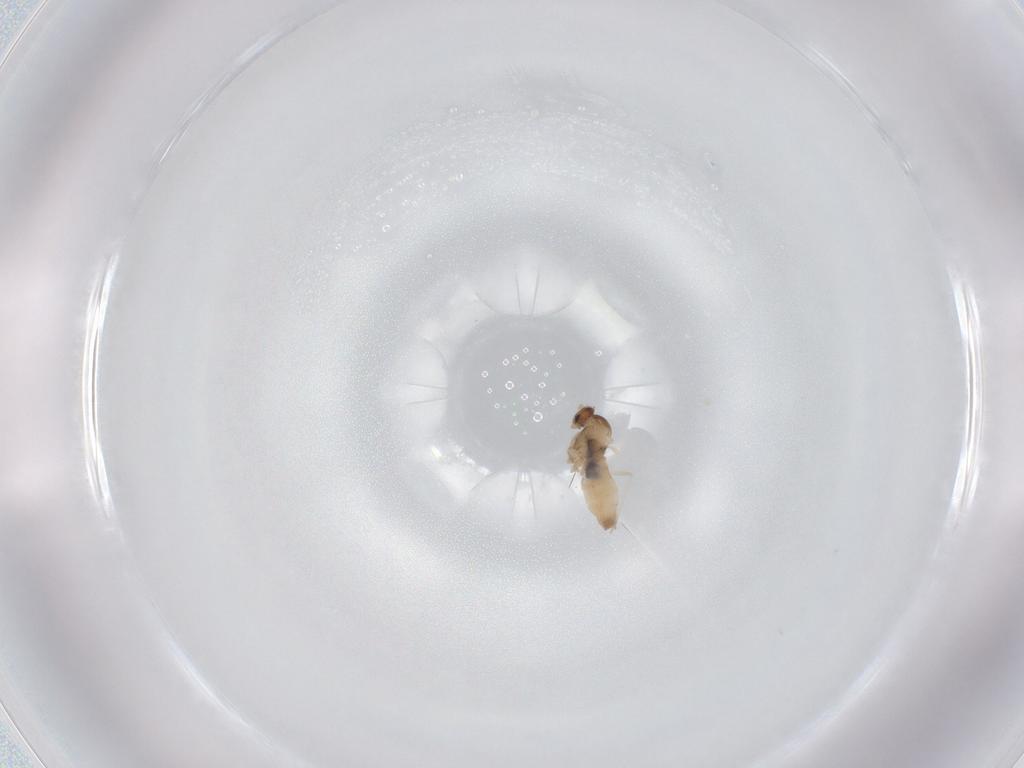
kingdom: Animalia
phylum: Arthropoda
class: Insecta
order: Diptera
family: Cecidomyiidae
